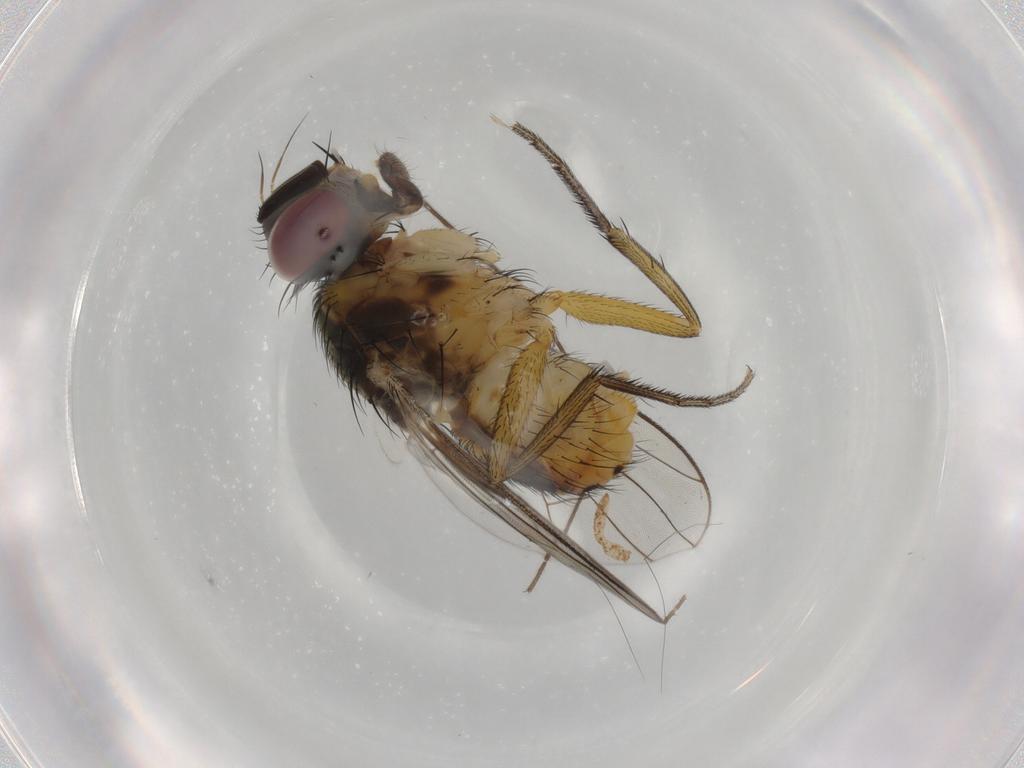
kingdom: Animalia
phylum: Arthropoda
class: Insecta
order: Diptera
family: Muscidae
